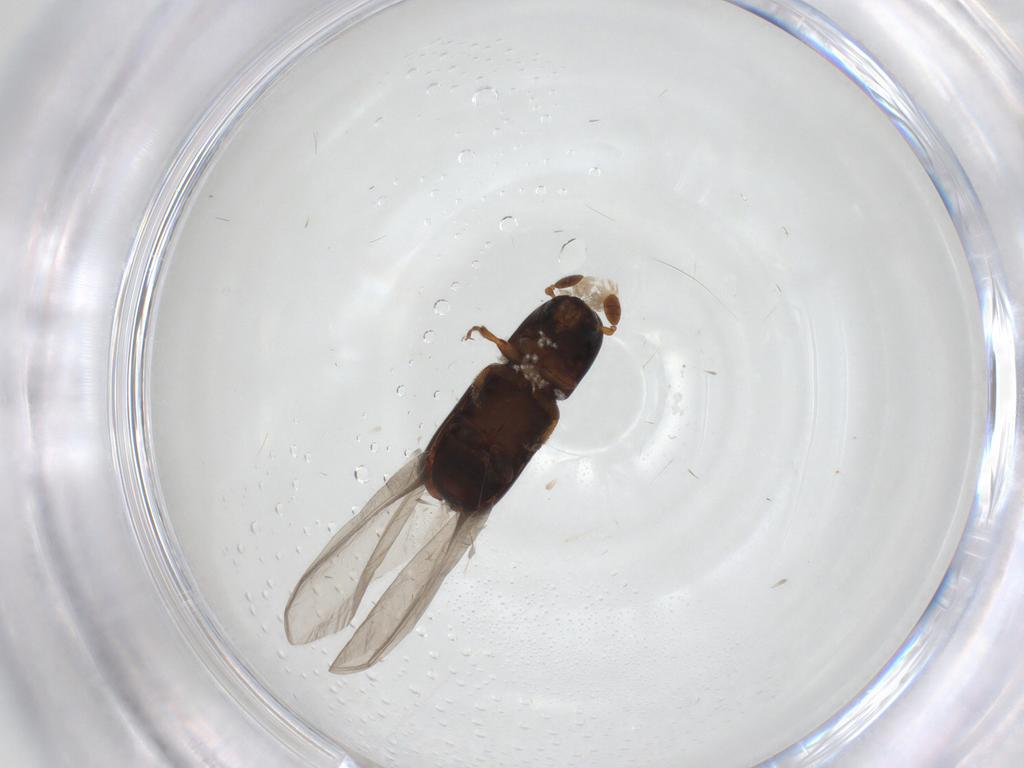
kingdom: Animalia
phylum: Arthropoda
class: Insecta
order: Coleoptera
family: Curculionidae
